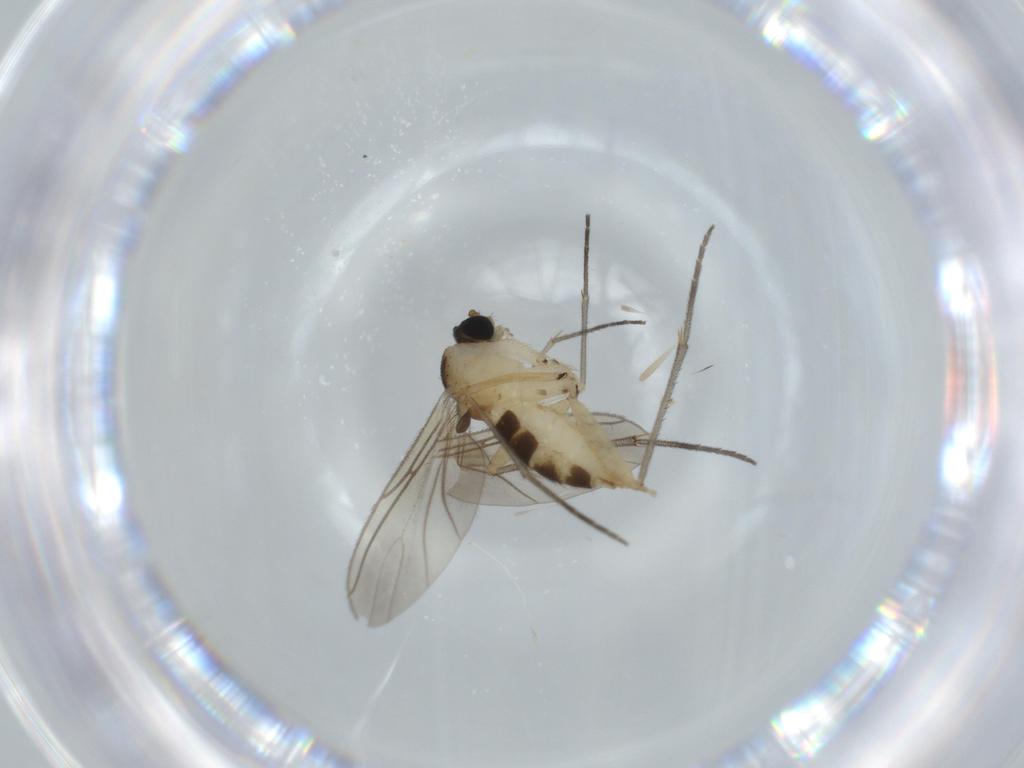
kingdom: Animalia
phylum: Arthropoda
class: Insecta
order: Diptera
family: Sciaridae
